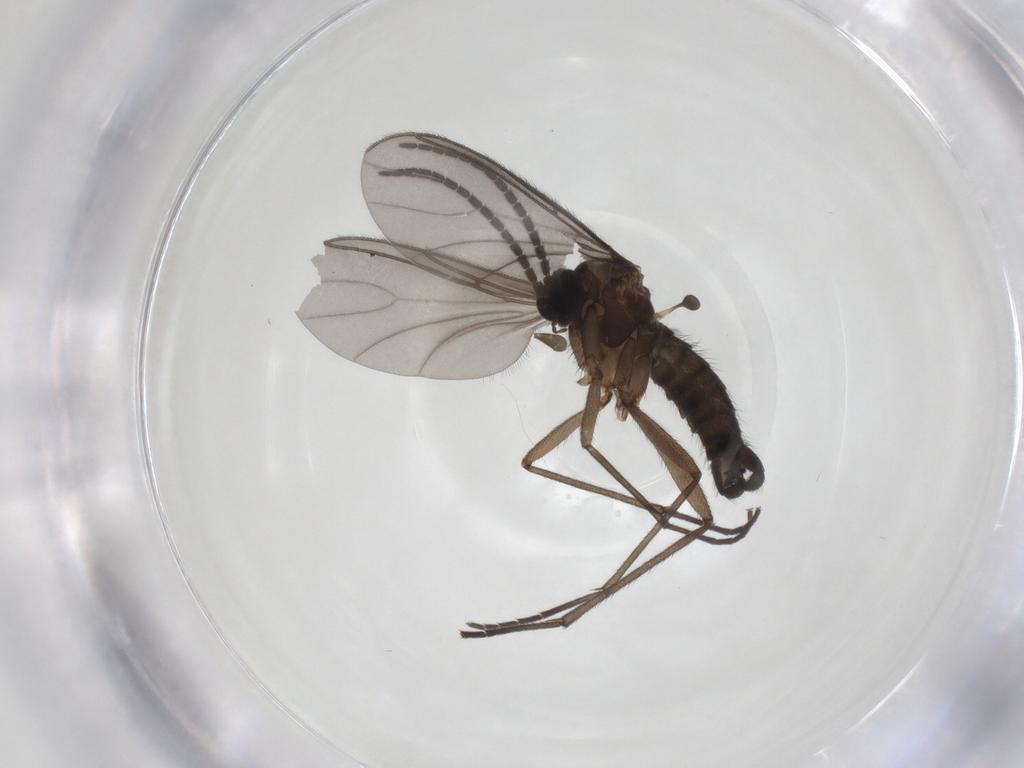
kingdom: Animalia
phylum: Arthropoda
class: Insecta
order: Diptera
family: Sciaridae
